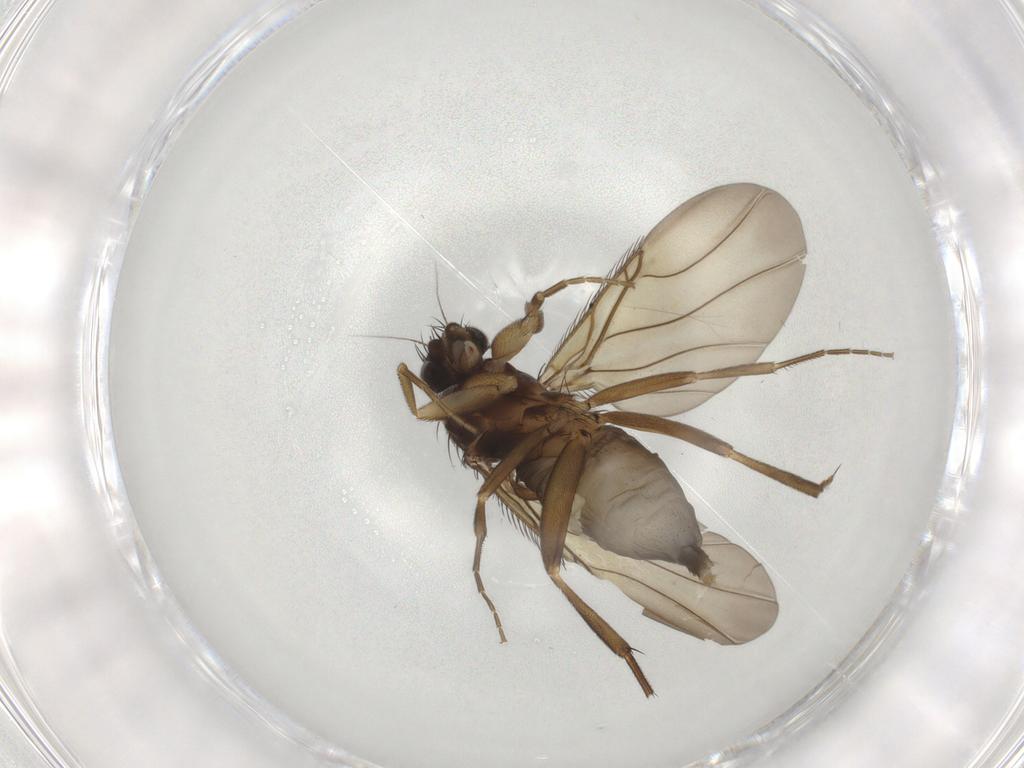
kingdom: Animalia
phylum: Arthropoda
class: Insecta
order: Diptera
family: Phoridae
